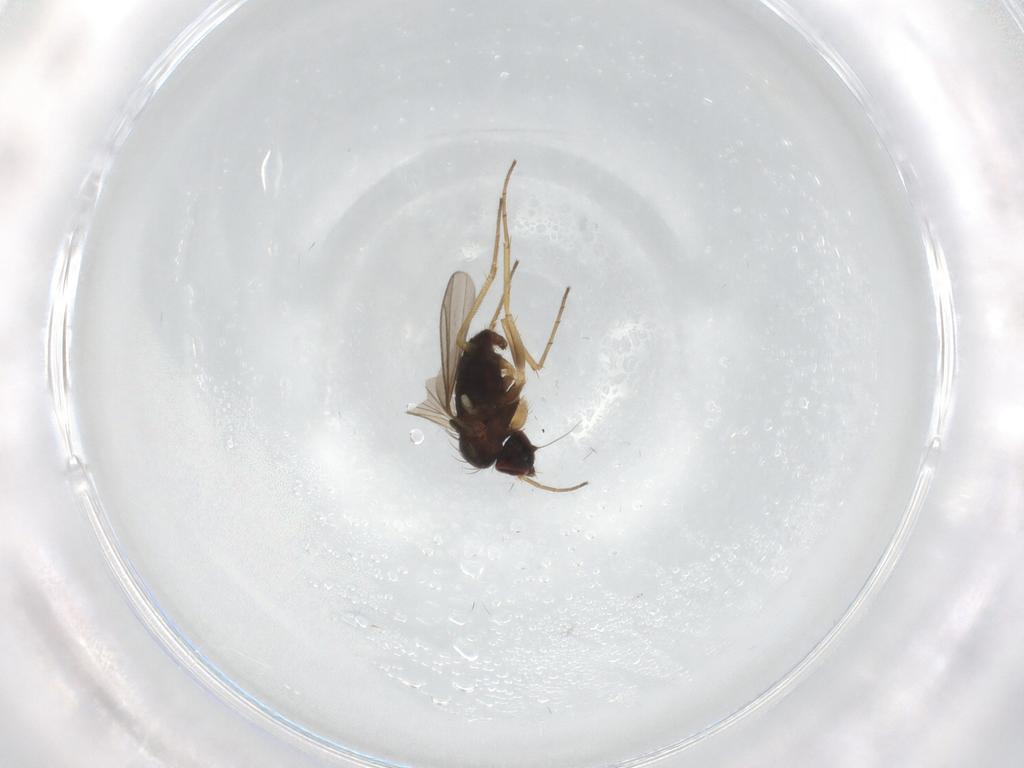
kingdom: Animalia
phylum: Arthropoda
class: Insecta
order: Diptera
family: Dolichopodidae
